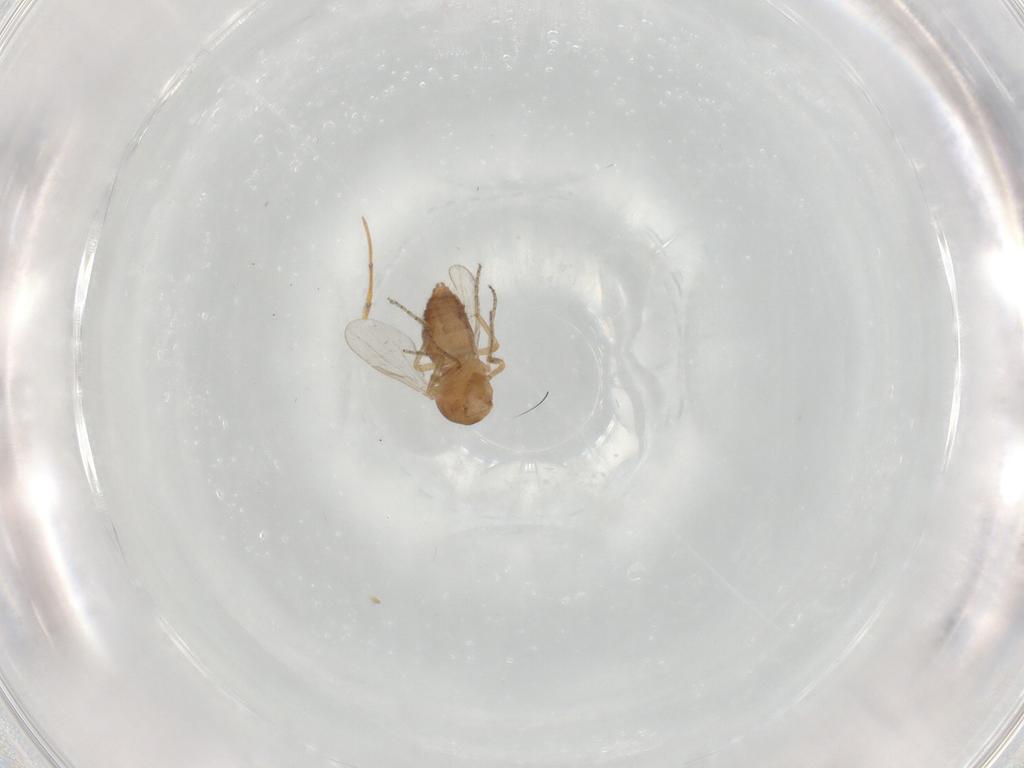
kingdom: Animalia
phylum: Arthropoda
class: Insecta
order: Diptera
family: Ceratopogonidae
